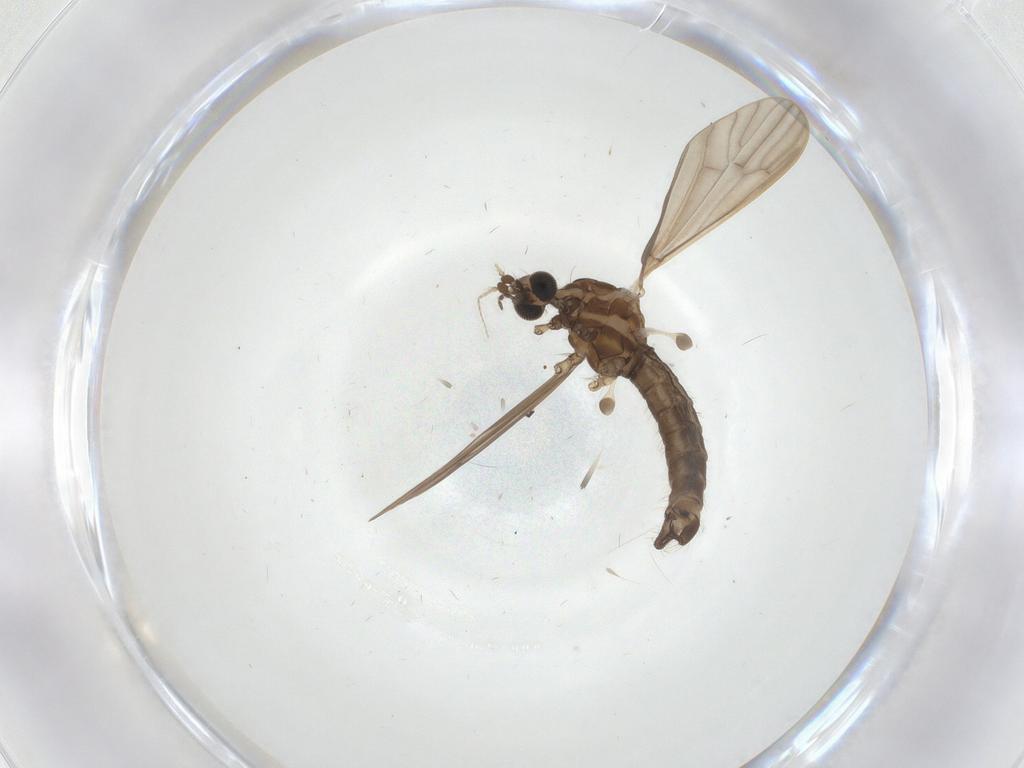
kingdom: Animalia
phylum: Arthropoda
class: Insecta
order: Diptera
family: Limoniidae
